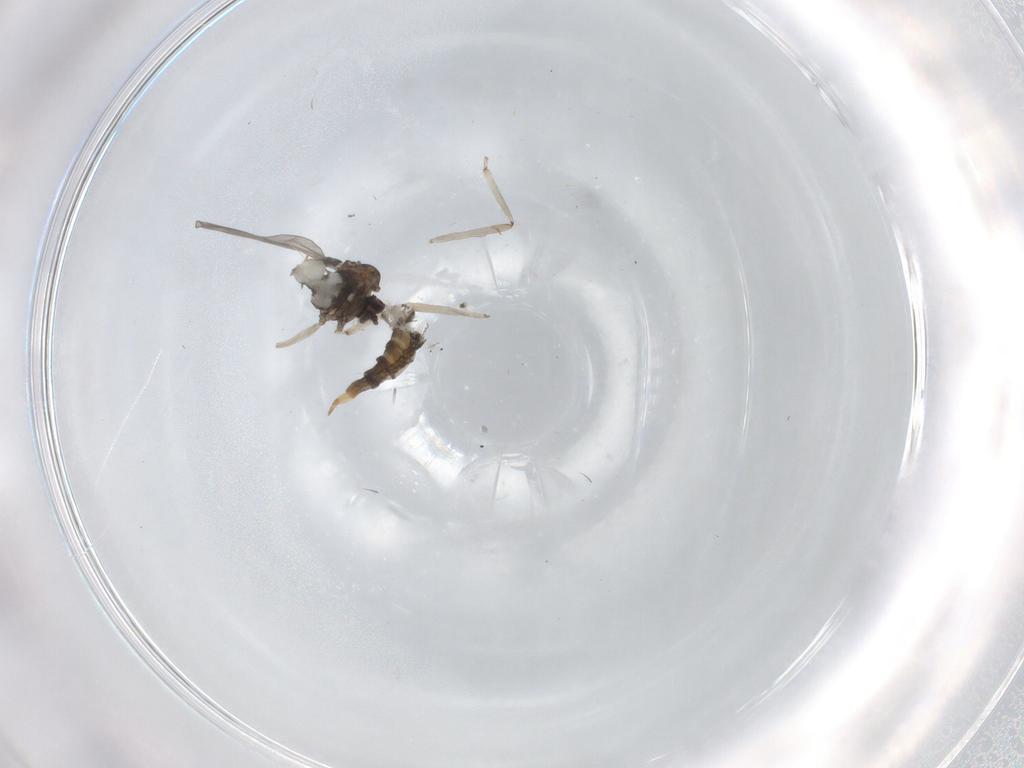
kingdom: Animalia
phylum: Arthropoda
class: Insecta
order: Diptera
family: Cecidomyiidae
